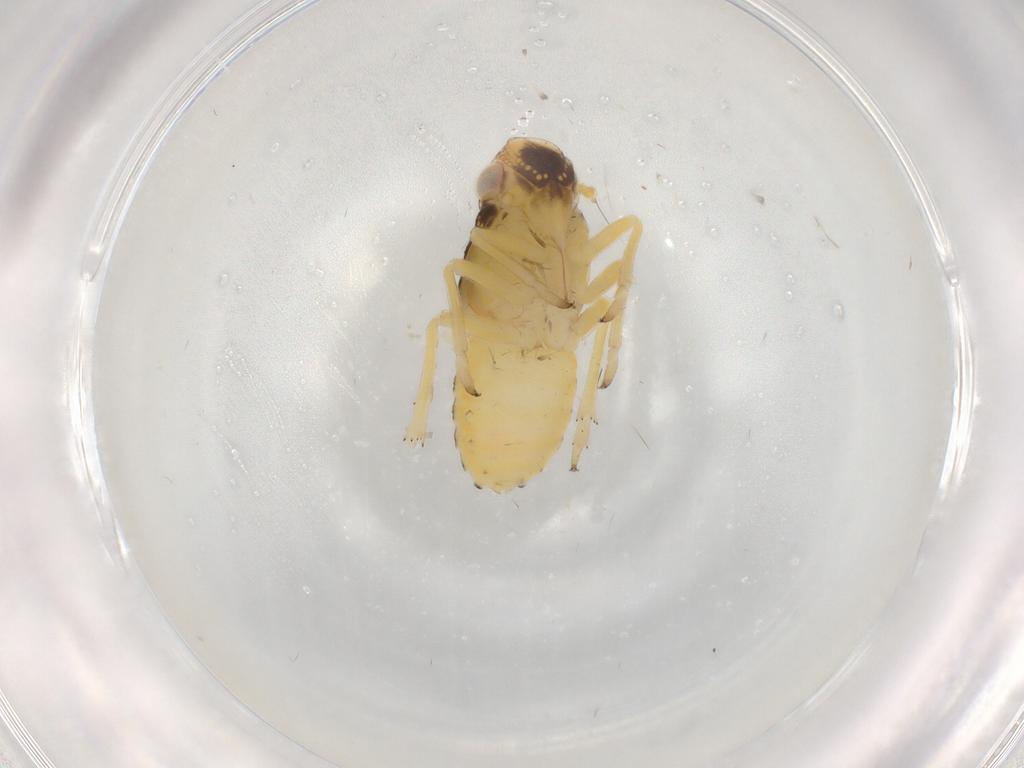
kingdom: Animalia
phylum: Arthropoda
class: Insecta
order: Hemiptera
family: Caliscelidae
